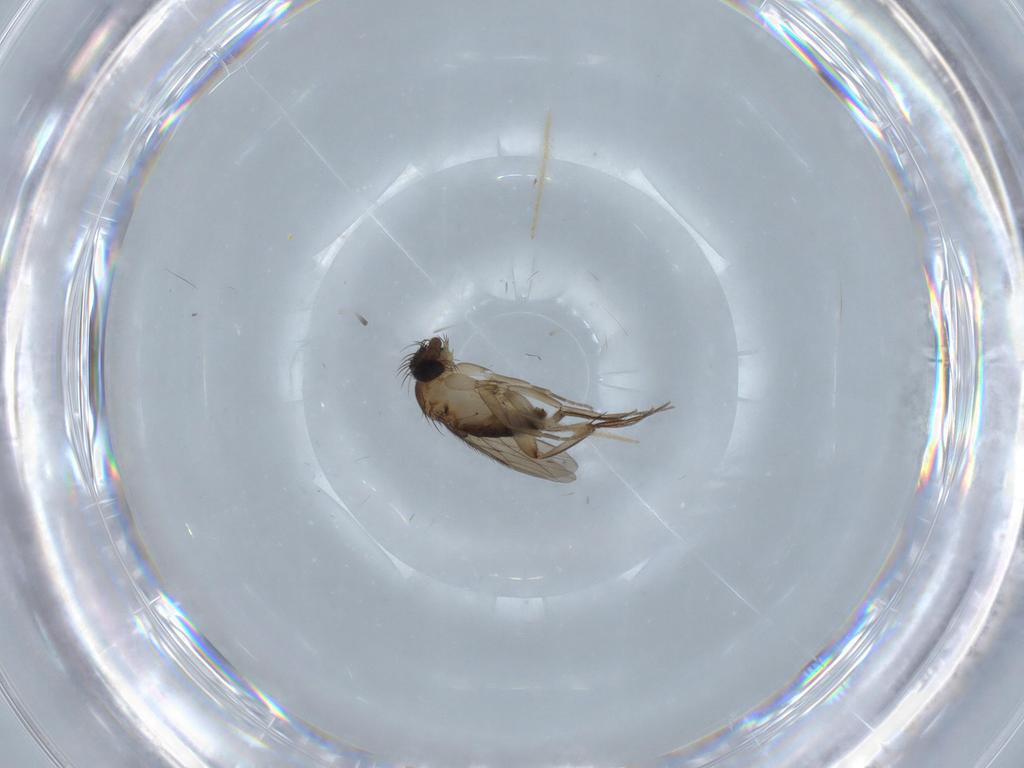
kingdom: Animalia
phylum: Arthropoda
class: Insecta
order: Diptera
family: Phoridae
